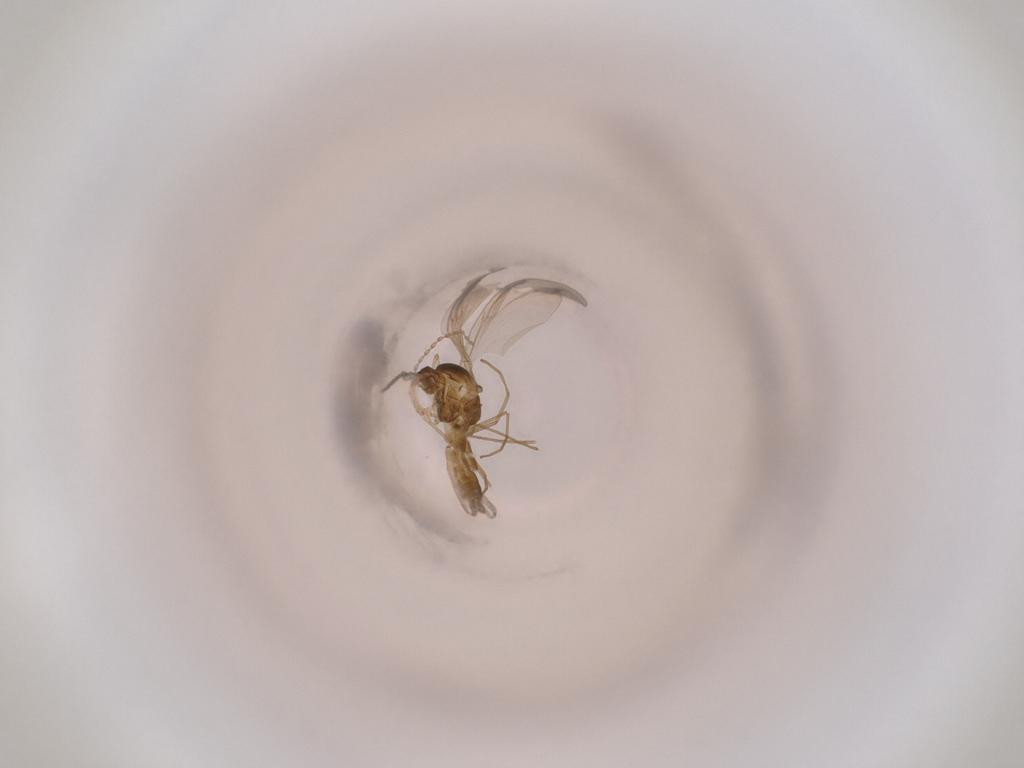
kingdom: Animalia
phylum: Arthropoda
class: Insecta
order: Diptera
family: Cecidomyiidae
